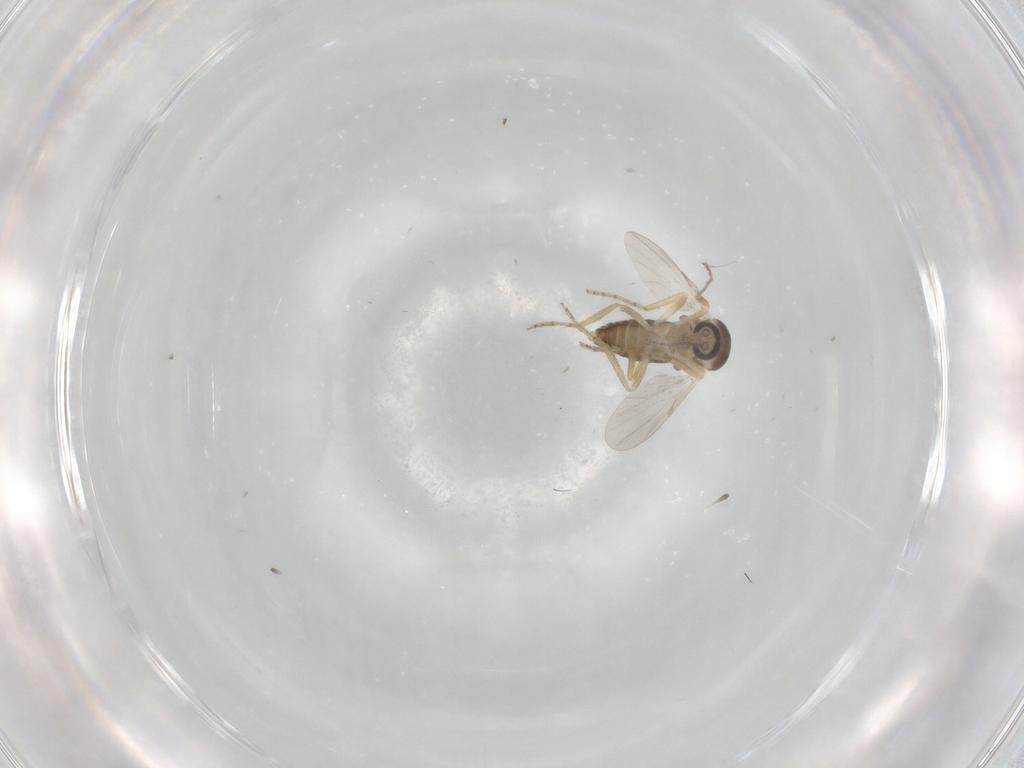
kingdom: Animalia
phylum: Arthropoda
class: Insecta
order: Diptera
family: Ceratopogonidae
